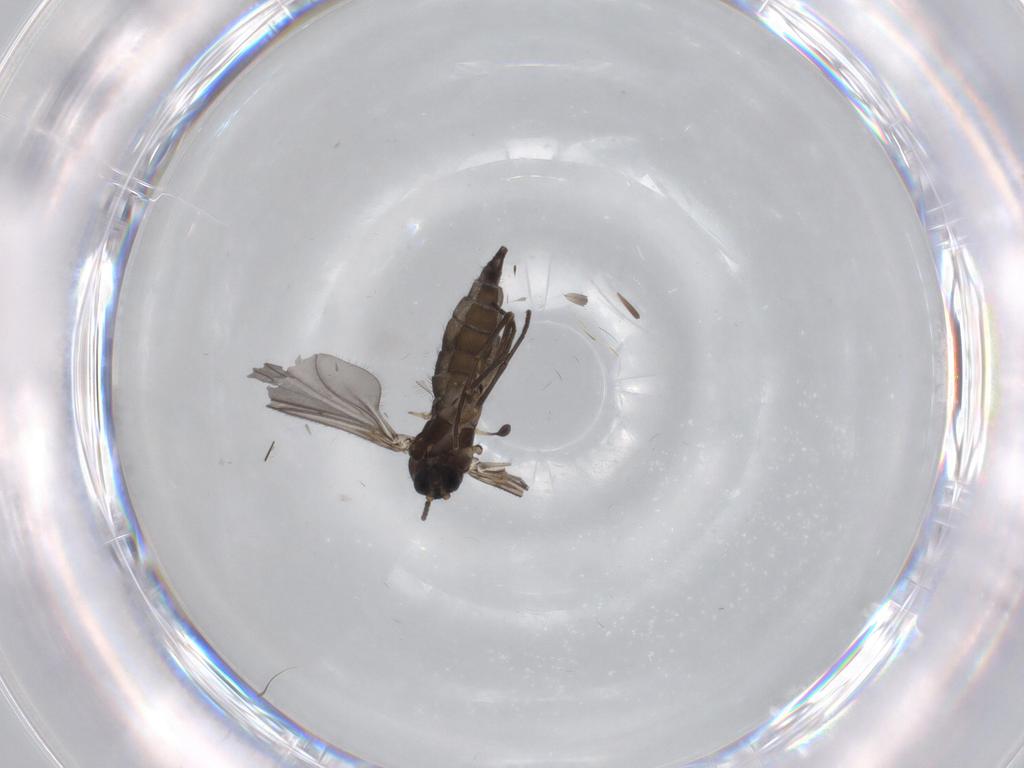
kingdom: Animalia
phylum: Arthropoda
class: Insecta
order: Diptera
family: Sciaridae
